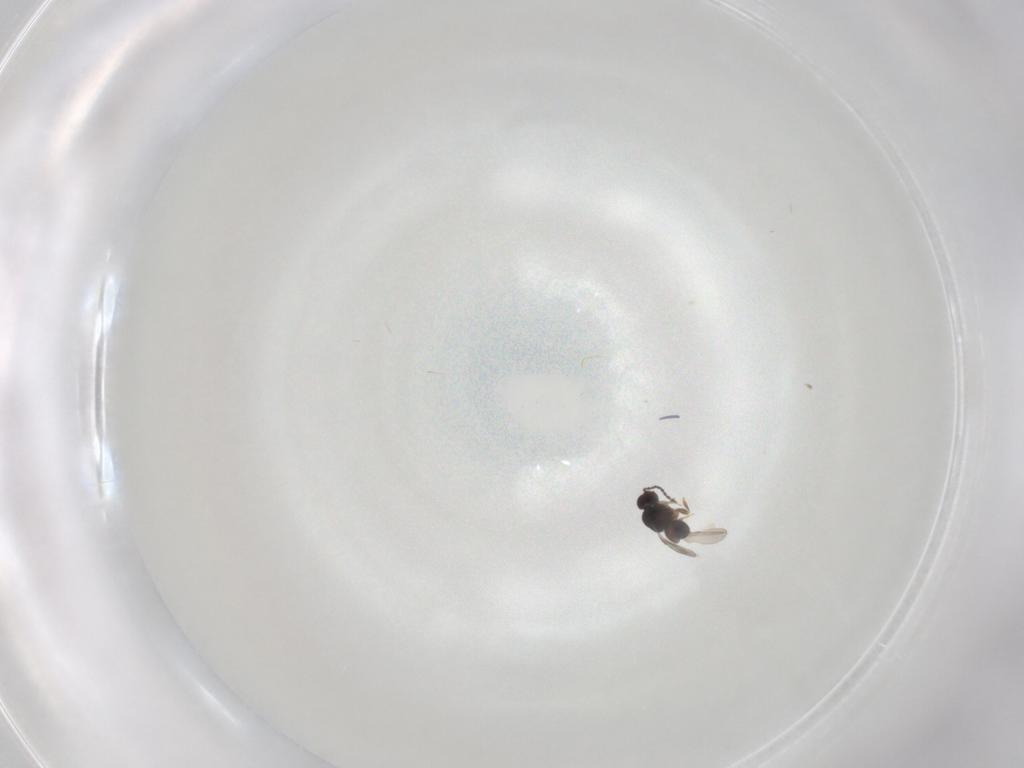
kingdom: Animalia
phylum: Arthropoda
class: Insecta
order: Hymenoptera
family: Ceraphronidae
